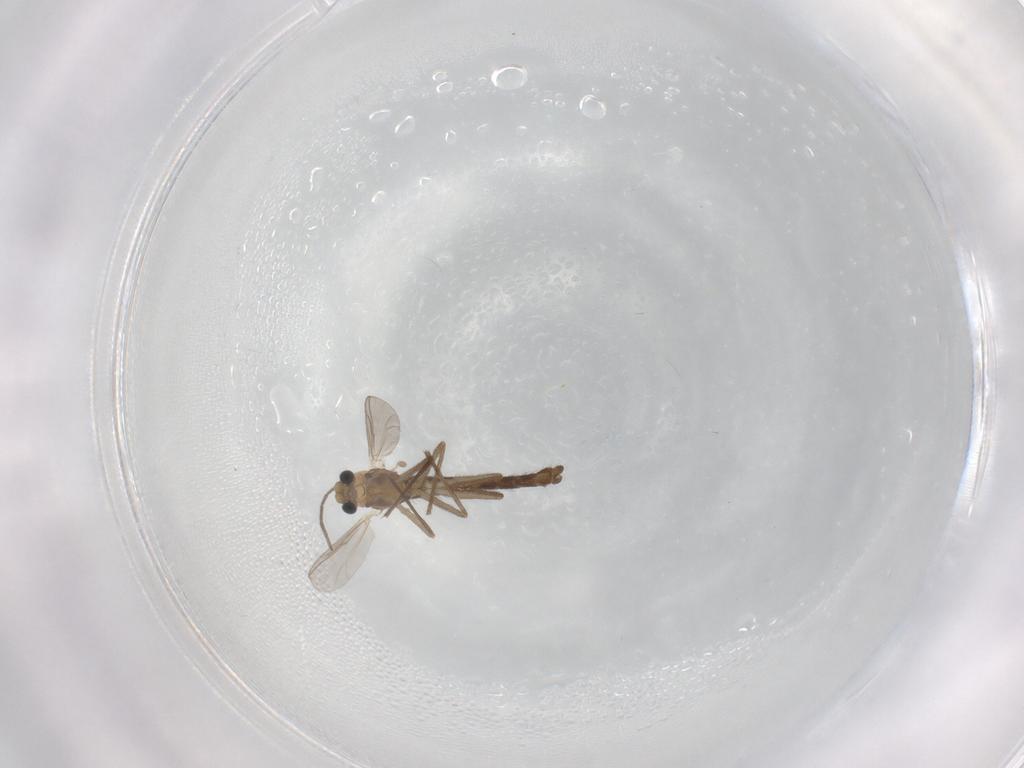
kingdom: Animalia
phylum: Arthropoda
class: Insecta
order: Diptera
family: Chironomidae
